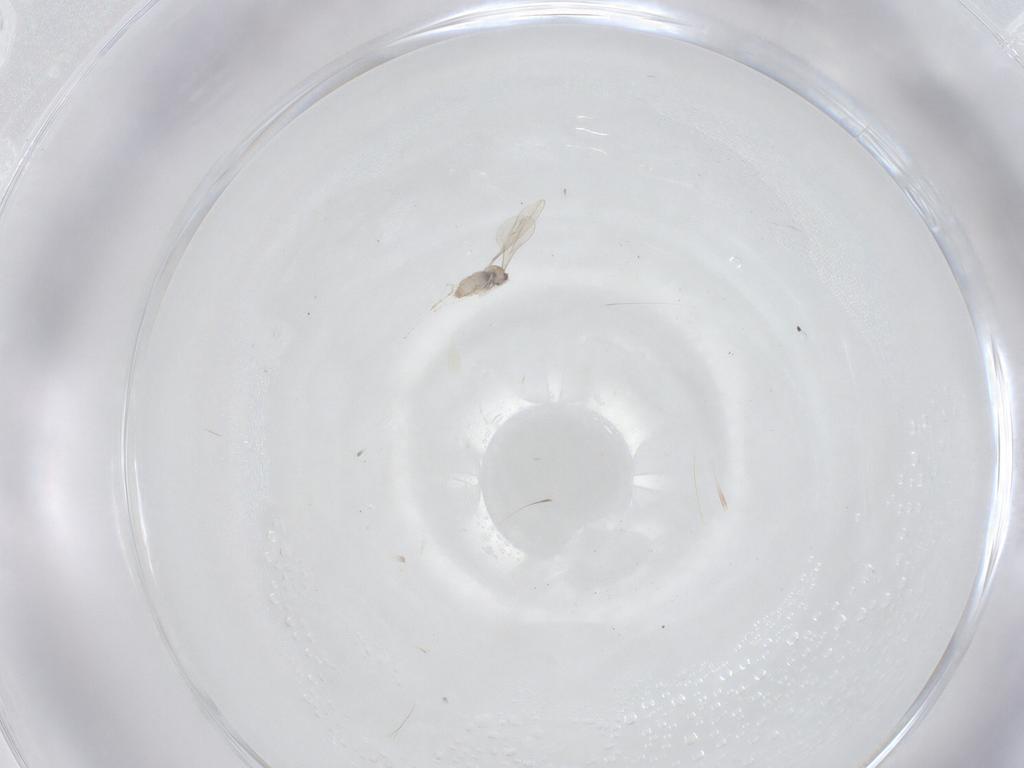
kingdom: Animalia
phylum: Arthropoda
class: Insecta
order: Diptera
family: Cecidomyiidae
